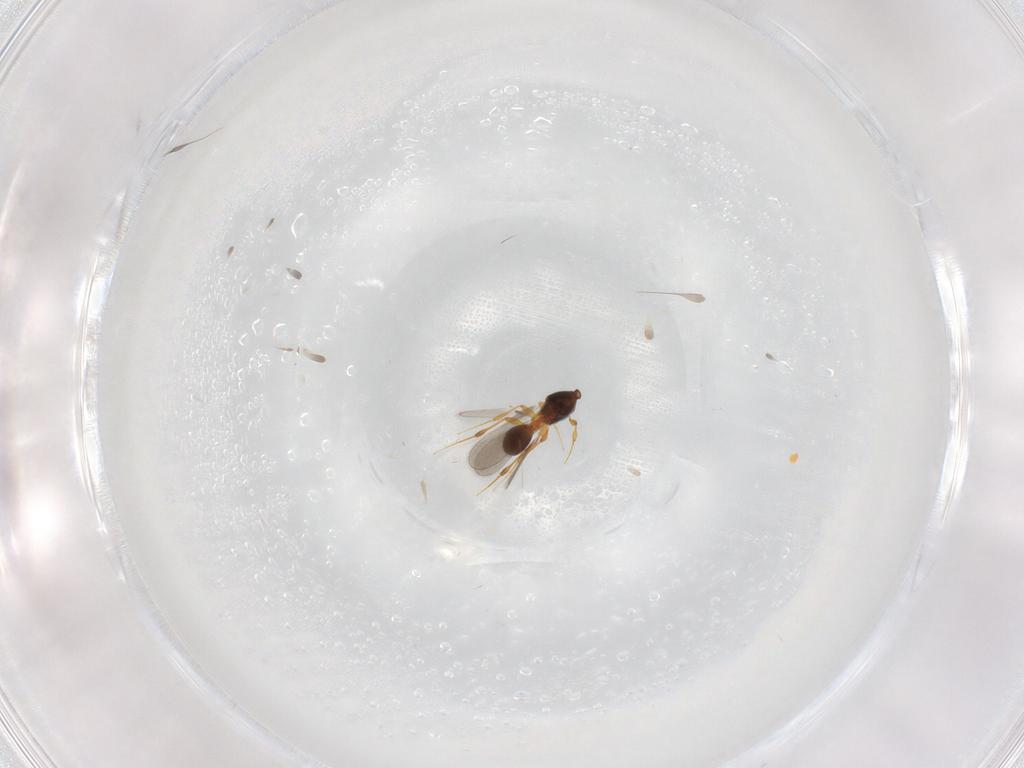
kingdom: Animalia
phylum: Arthropoda
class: Insecta
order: Hymenoptera
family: Platygastridae
